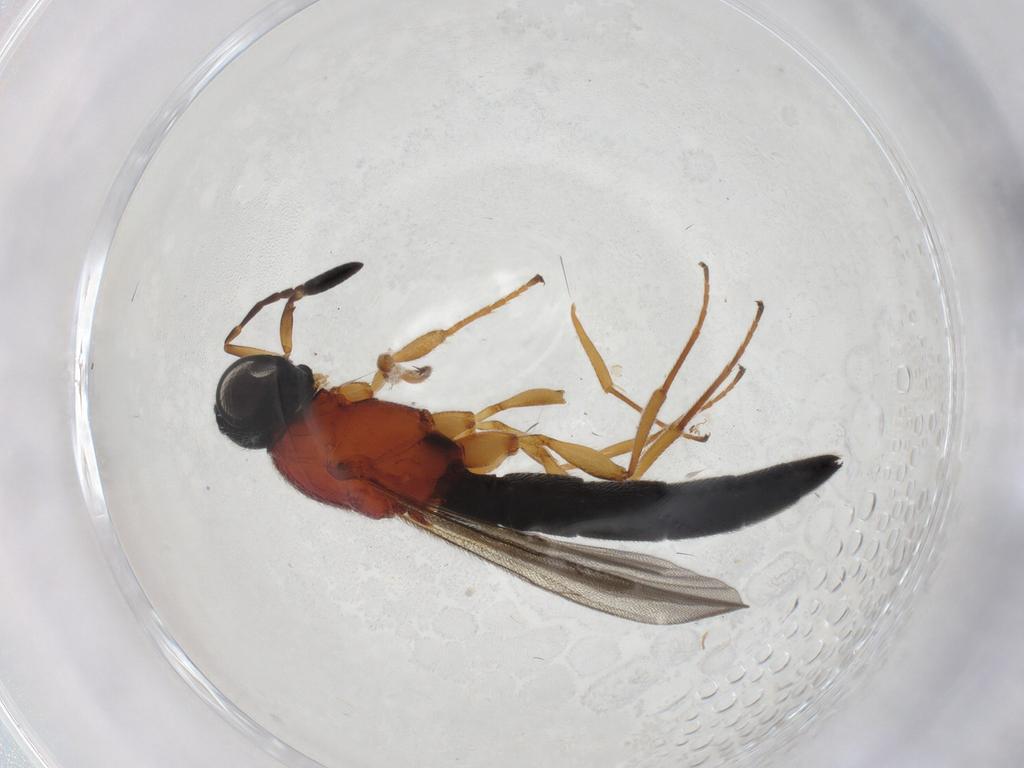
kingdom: Animalia
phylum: Arthropoda
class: Insecta
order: Hymenoptera
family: Scelionidae
